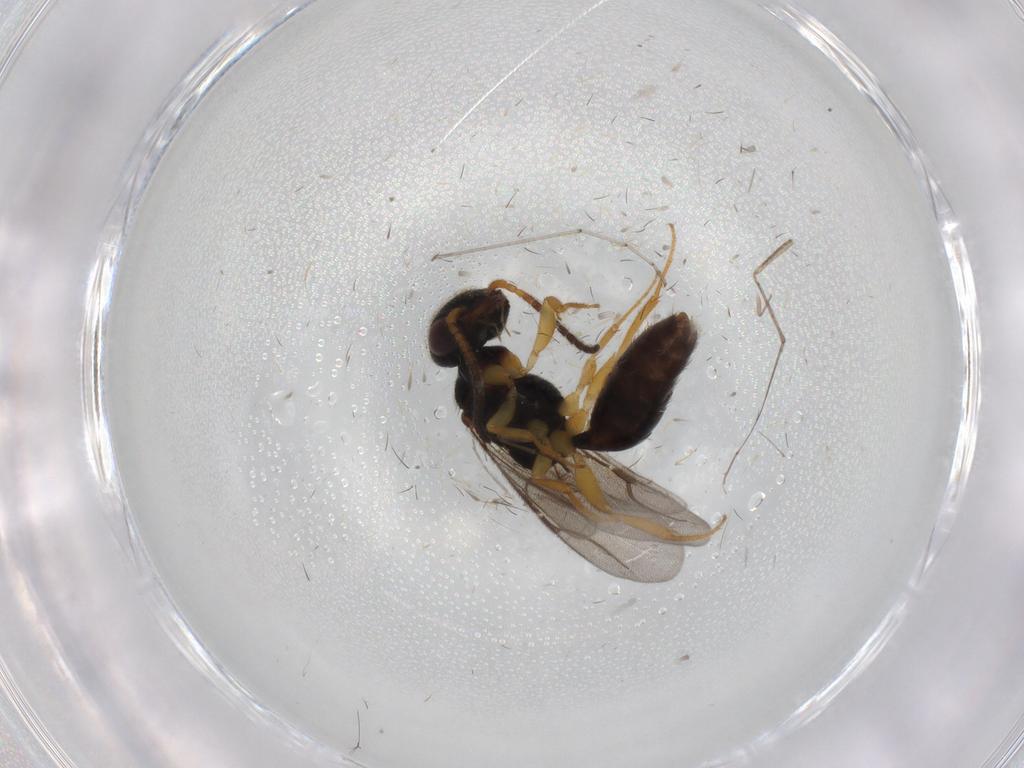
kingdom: Animalia
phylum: Arthropoda
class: Insecta
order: Hymenoptera
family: Scelionidae
